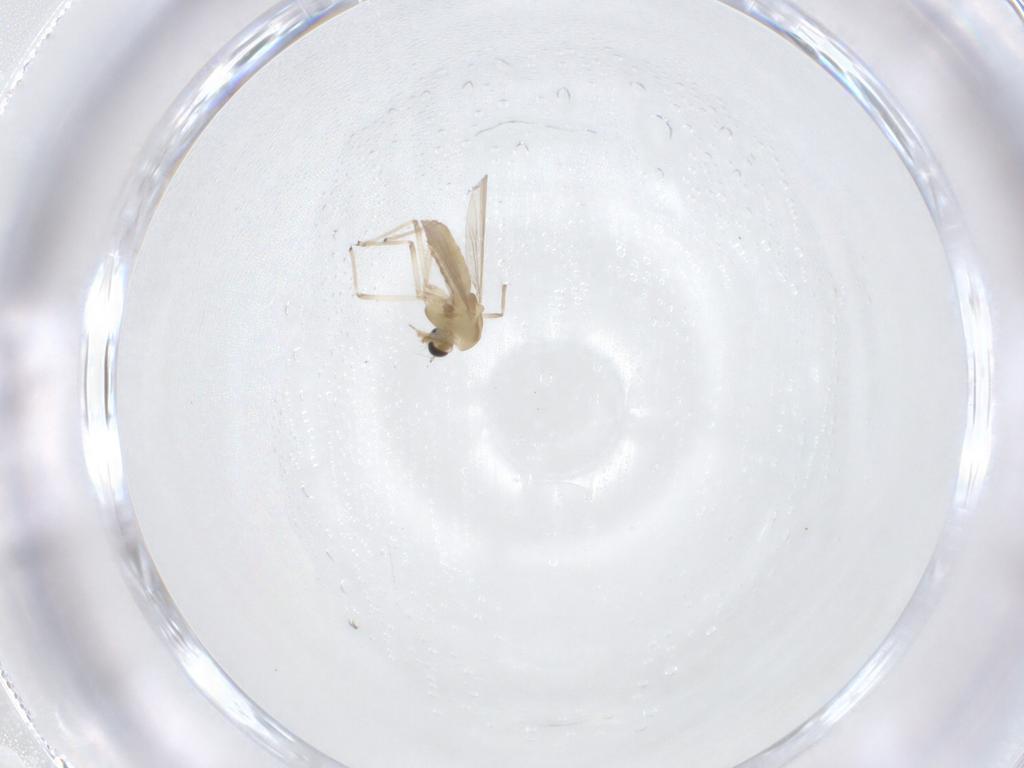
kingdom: Animalia
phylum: Arthropoda
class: Insecta
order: Diptera
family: Chironomidae
